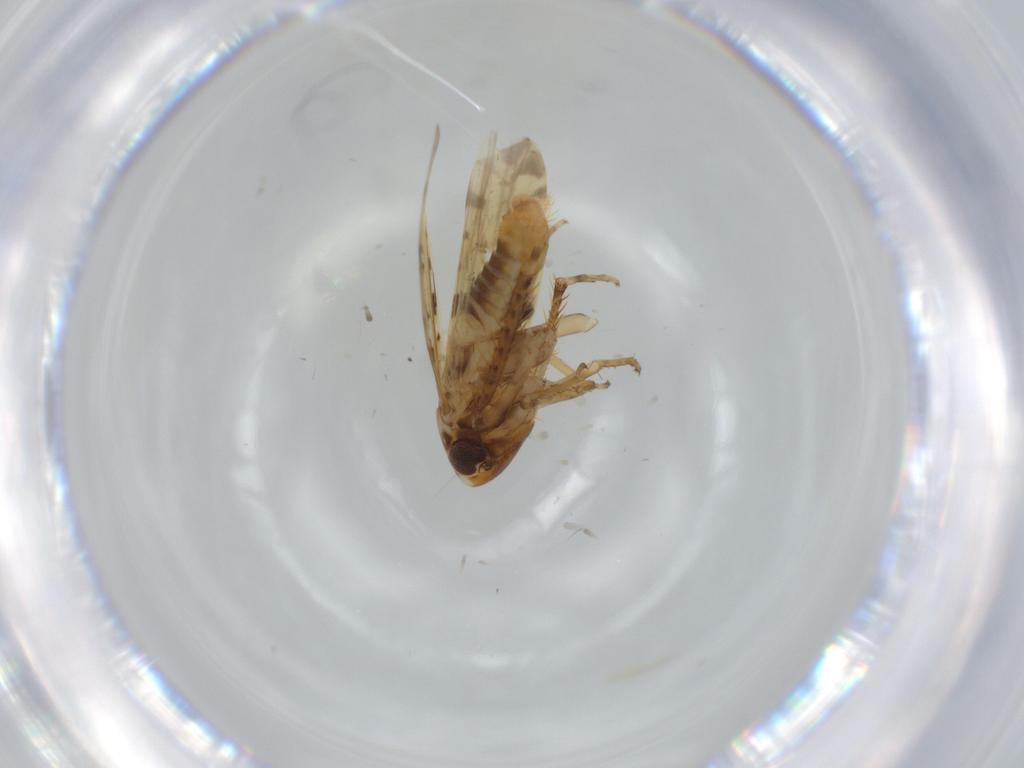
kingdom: Animalia
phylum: Arthropoda
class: Insecta
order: Hemiptera
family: Cicadellidae
